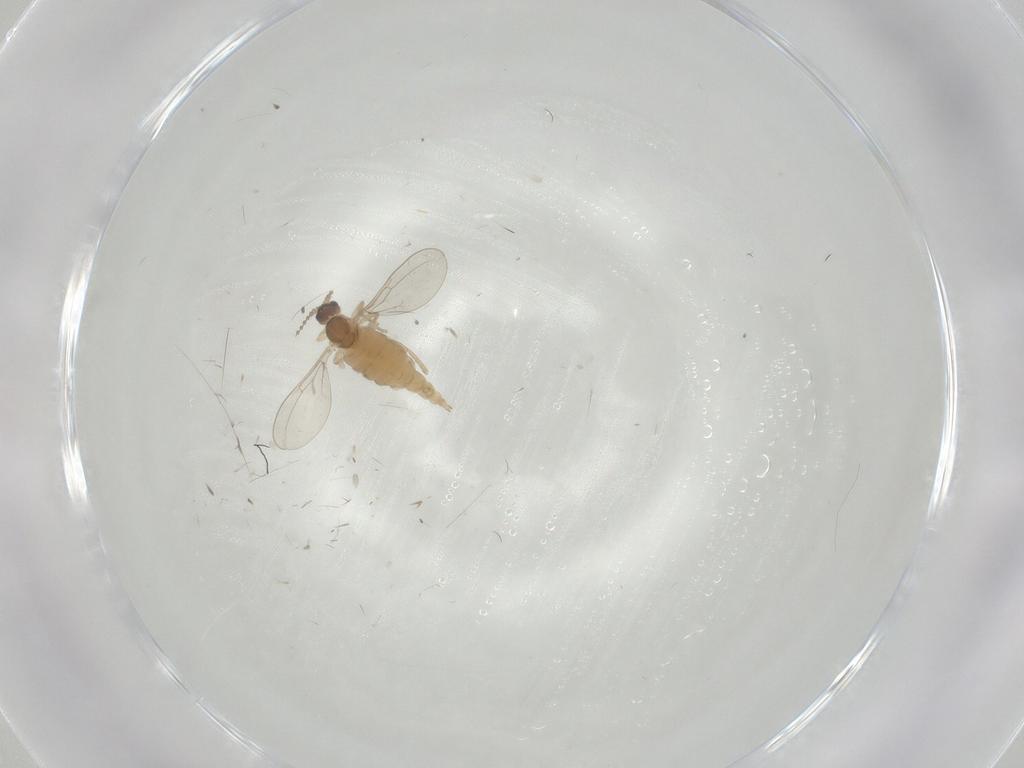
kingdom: Animalia
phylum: Arthropoda
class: Insecta
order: Diptera
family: Cecidomyiidae
